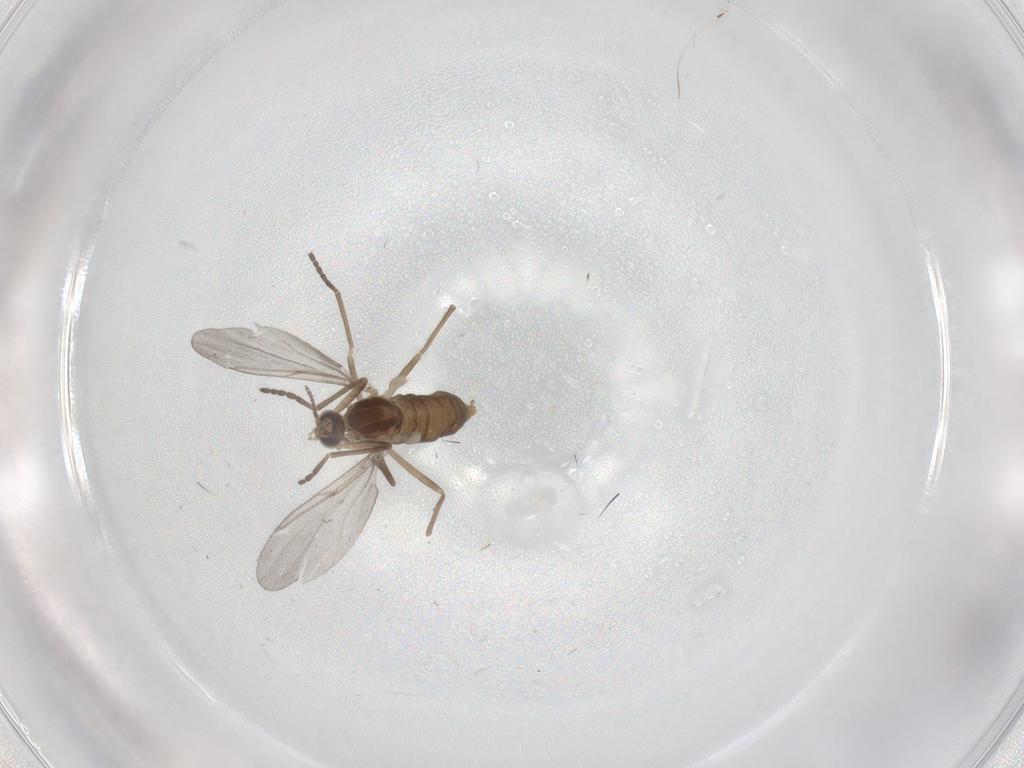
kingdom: Animalia
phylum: Arthropoda
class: Insecta
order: Diptera
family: Cecidomyiidae
